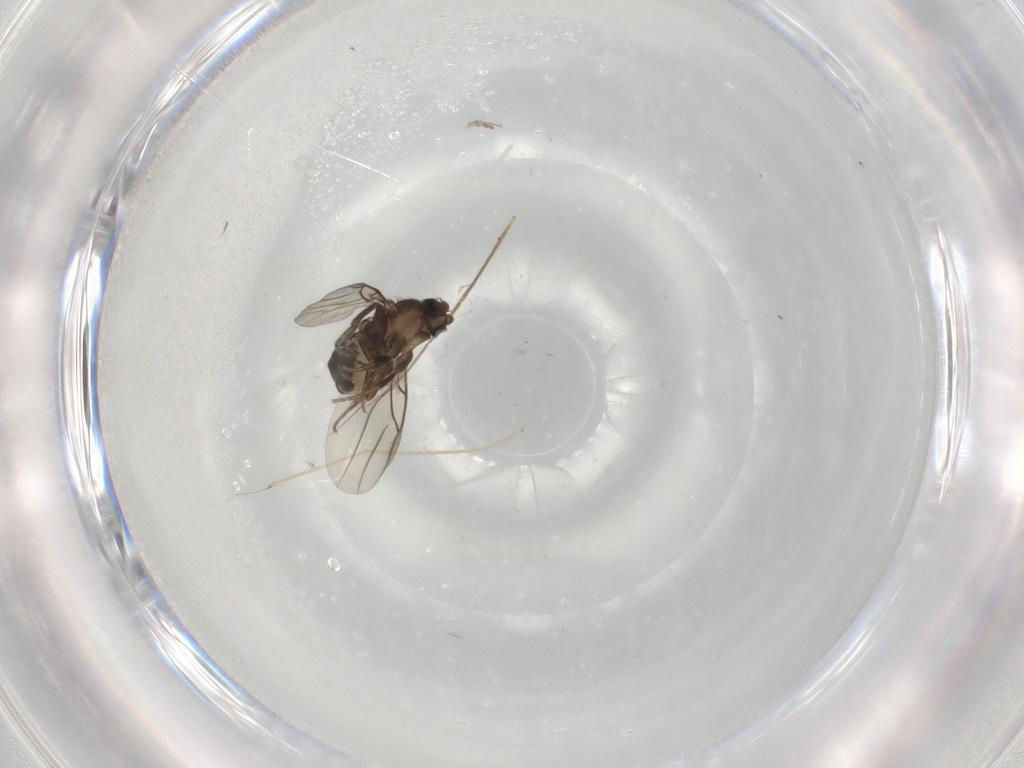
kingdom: Animalia
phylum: Arthropoda
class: Insecta
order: Diptera
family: Phoridae
